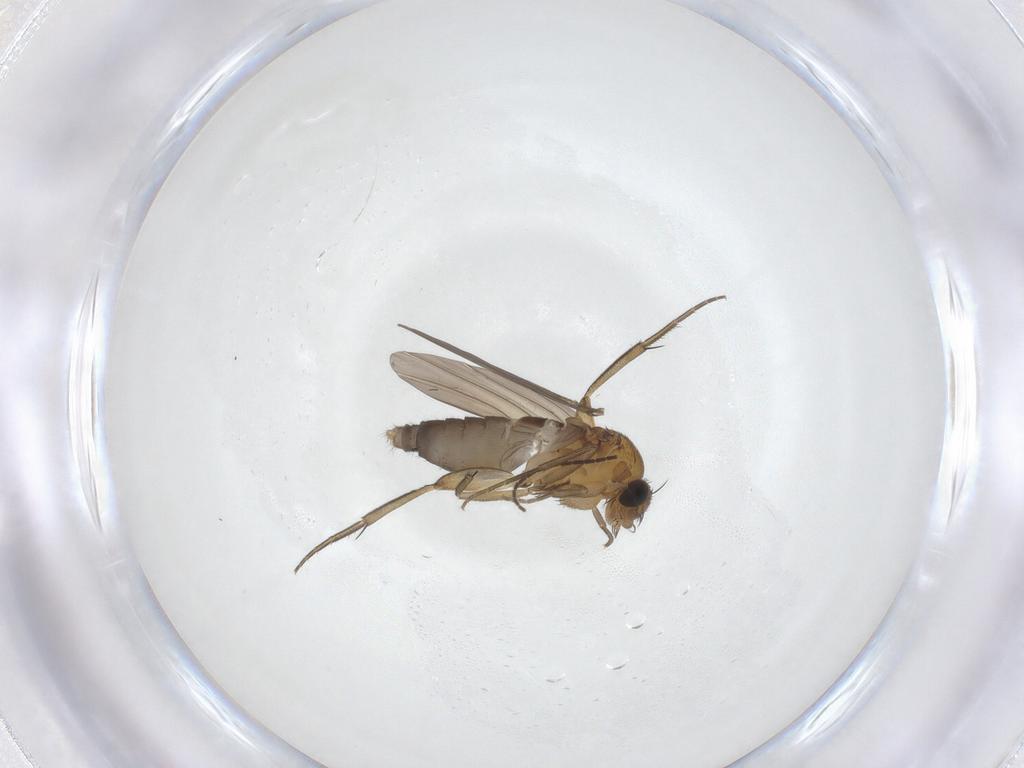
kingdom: Animalia
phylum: Arthropoda
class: Insecta
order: Diptera
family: Phoridae
